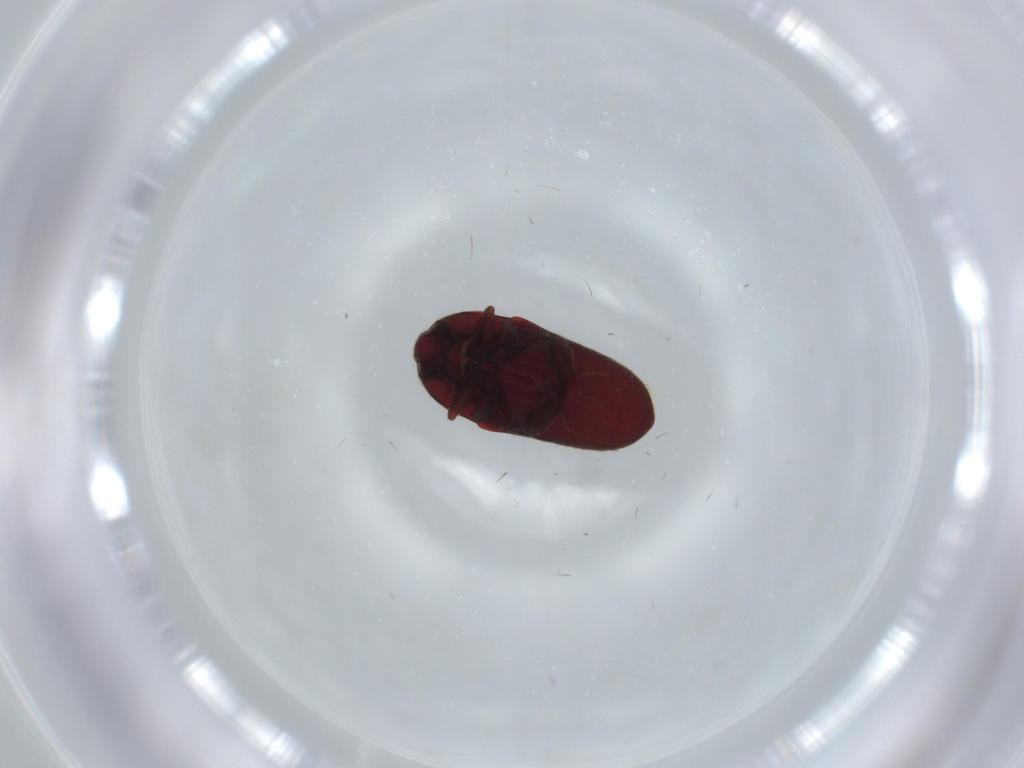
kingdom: Animalia
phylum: Arthropoda
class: Insecta
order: Coleoptera
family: Throscidae
